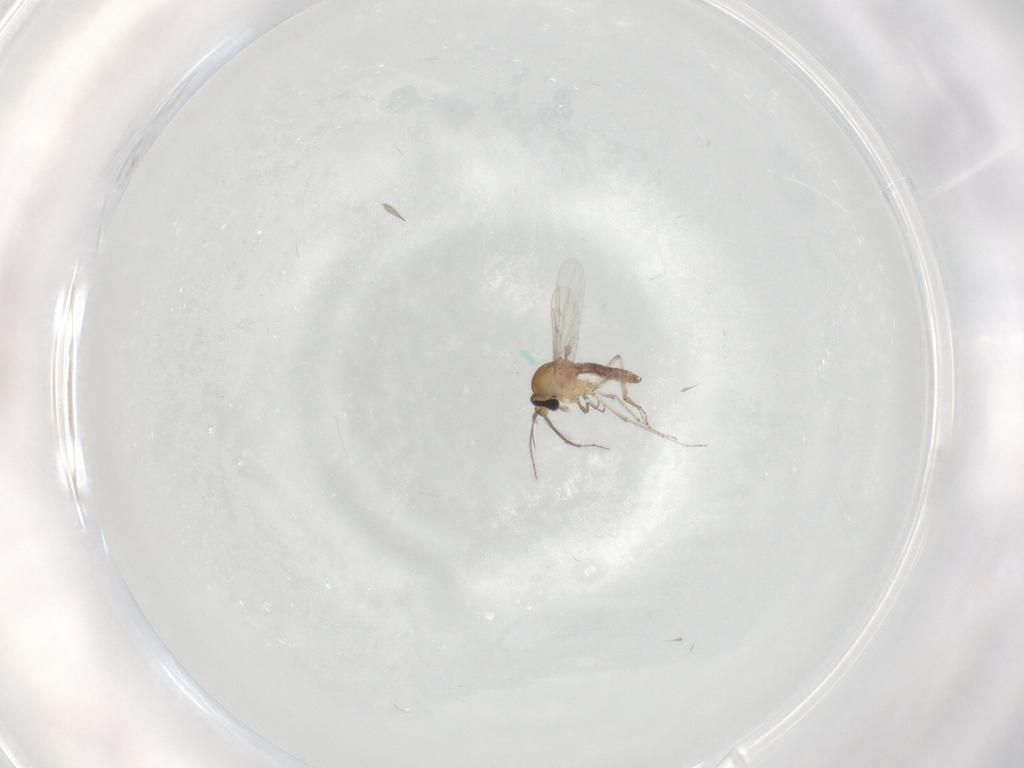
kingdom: Animalia
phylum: Arthropoda
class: Insecta
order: Diptera
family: Cecidomyiidae
